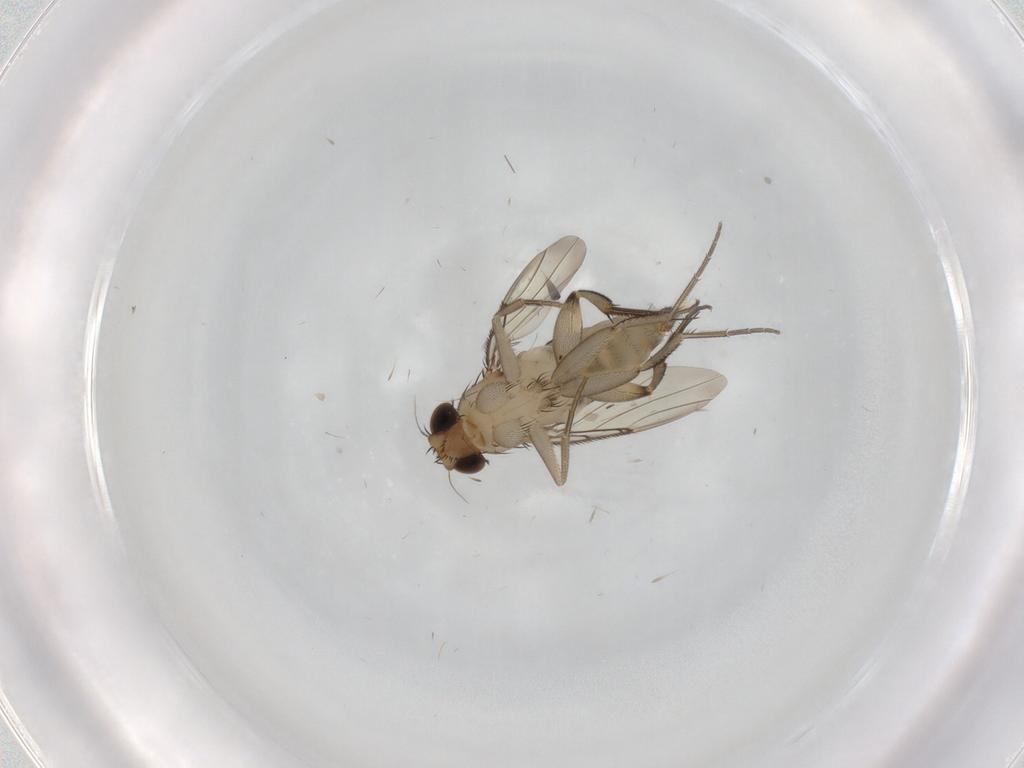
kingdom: Animalia
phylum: Arthropoda
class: Insecta
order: Diptera
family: Phoridae
